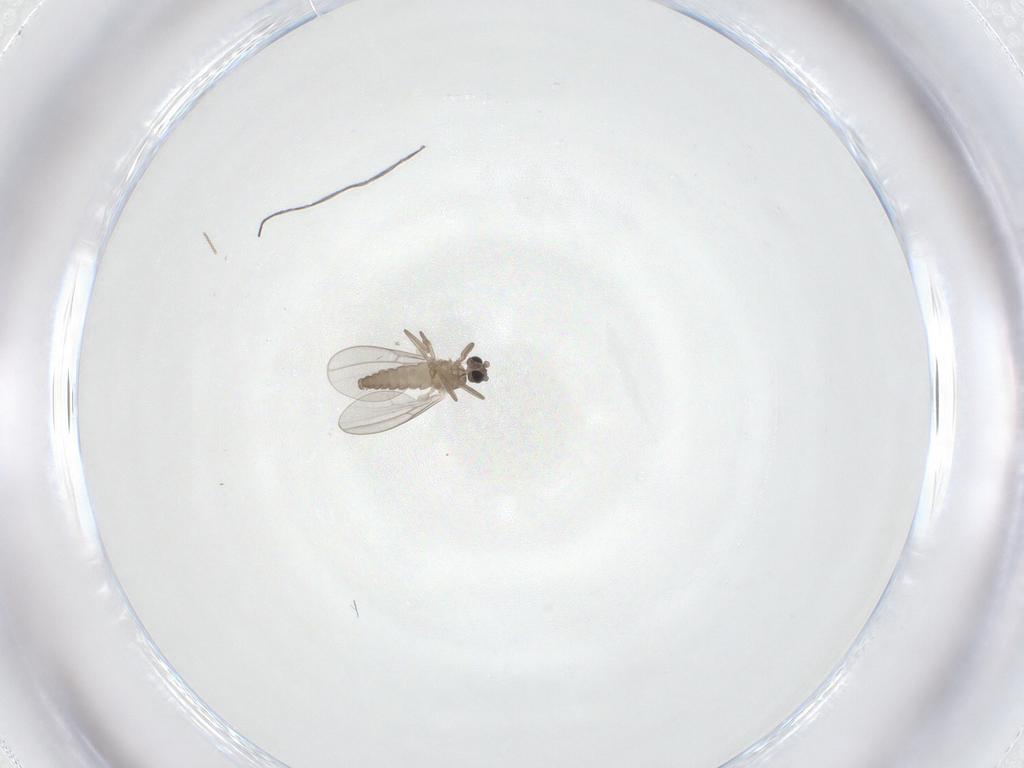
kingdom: Animalia
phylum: Arthropoda
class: Insecta
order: Diptera
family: Cecidomyiidae
